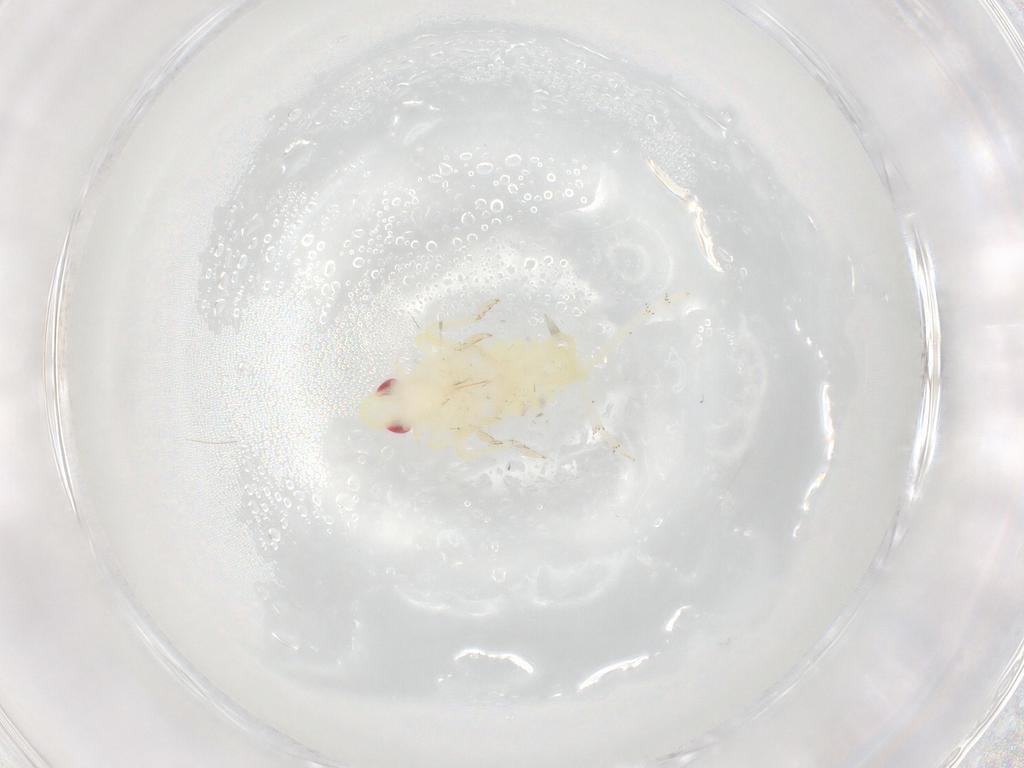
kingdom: Animalia
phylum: Arthropoda
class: Insecta
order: Hemiptera
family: Tropiduchidae
